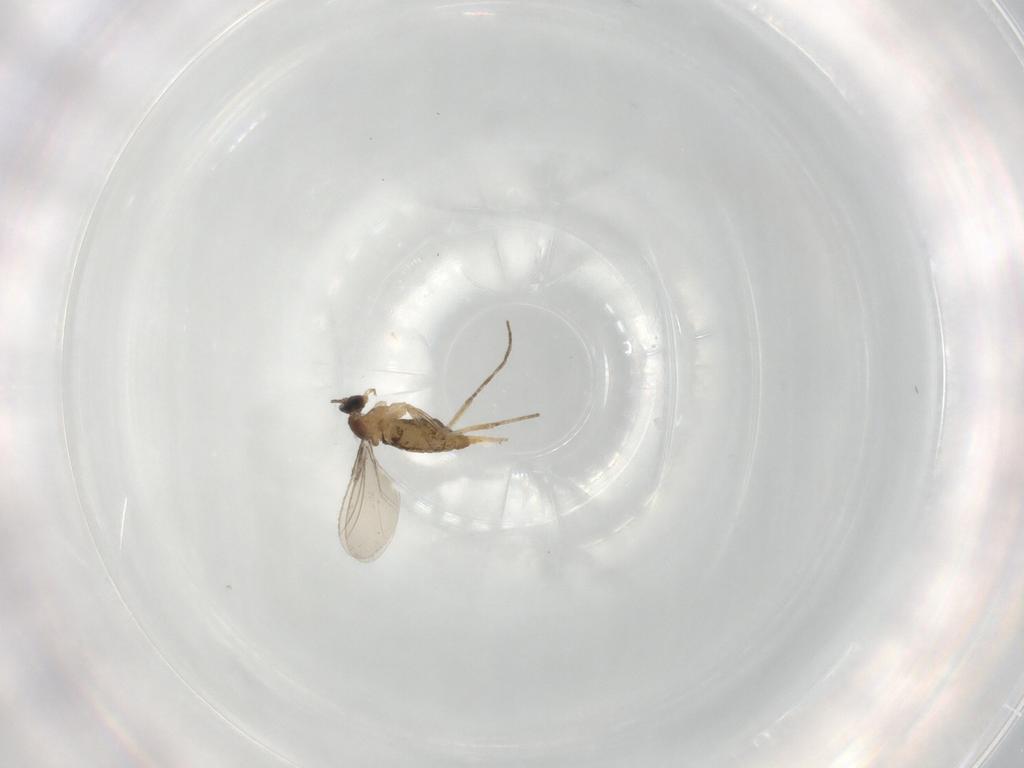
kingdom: Animalia
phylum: Arthropoda
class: Insecta
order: Diptera
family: Cecidomyiidae
